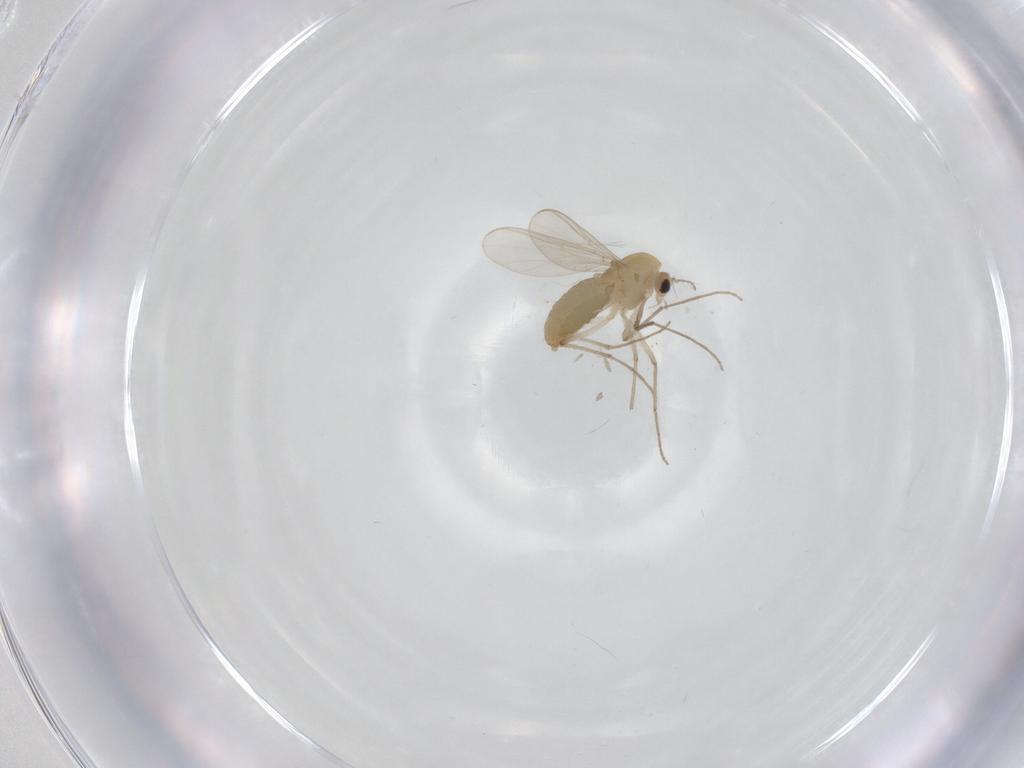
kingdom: Animalia
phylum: Arthropoda
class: Insecta
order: Diptera
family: Chironomidae
